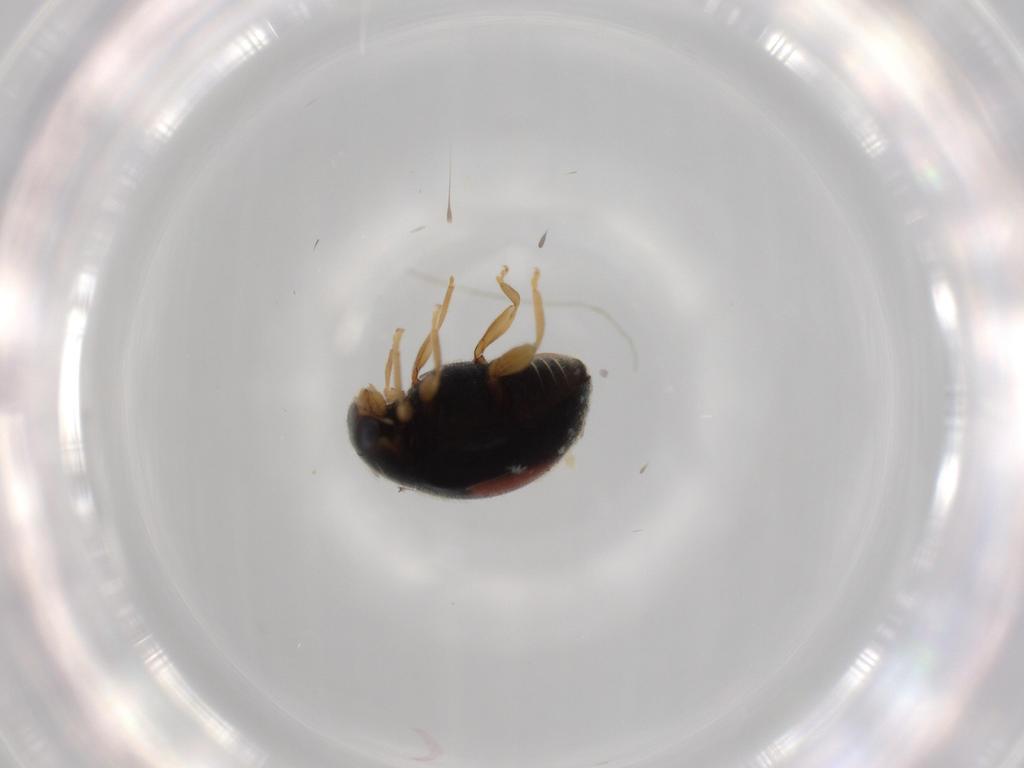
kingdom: Animalia
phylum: Arthropoda
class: Insecta
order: Coleoptera
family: Coccinellidae
